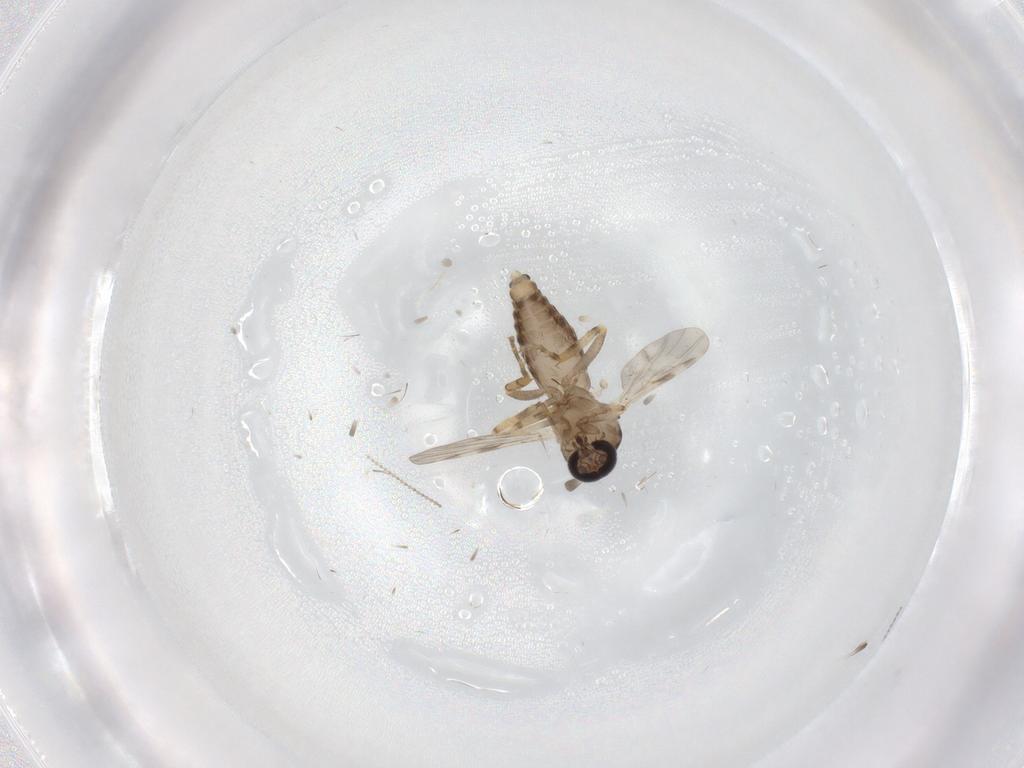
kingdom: Animalia
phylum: Arthropoda
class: Insecta
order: Diptera
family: Ceratopogonidae
